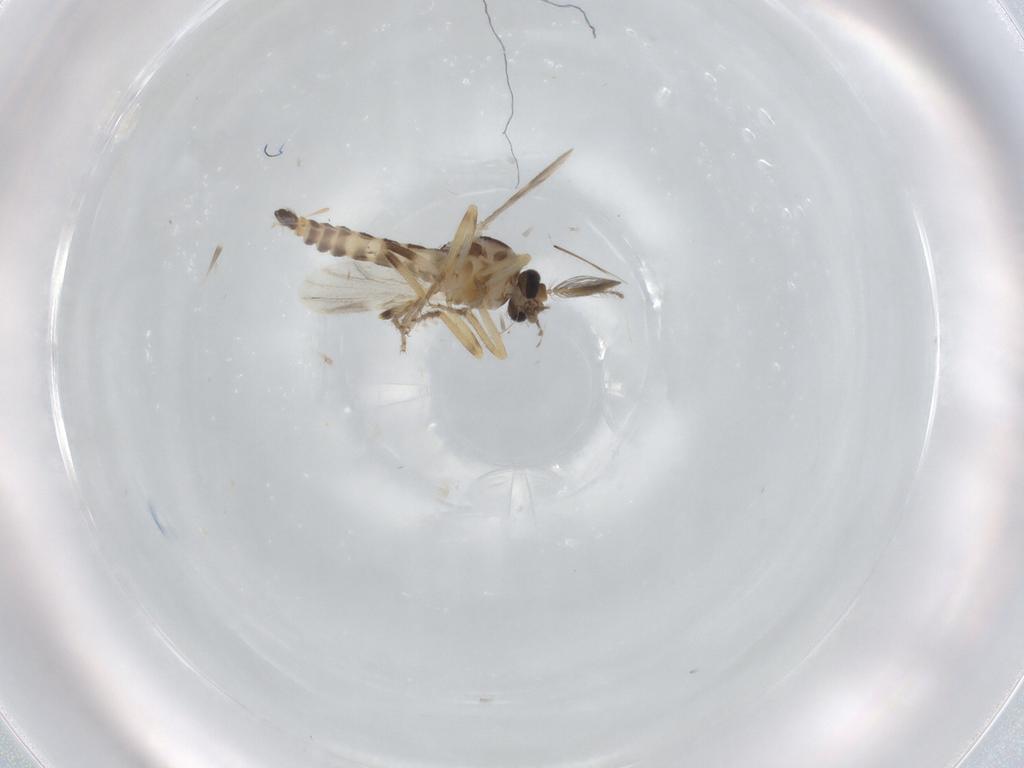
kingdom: Animalia
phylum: Arthropoda
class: Insecta
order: Diptera
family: Ceratopogonidae
